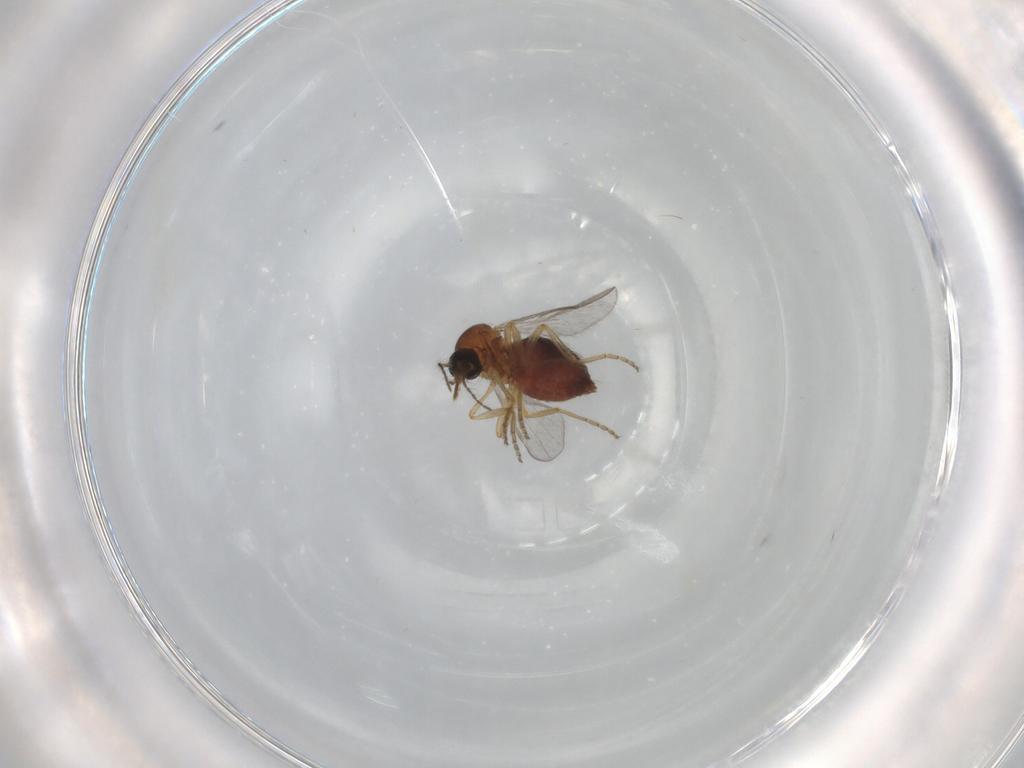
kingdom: Animalia
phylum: Arthropoda
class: Insecta
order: Diptera
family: Ceratopogonidae
